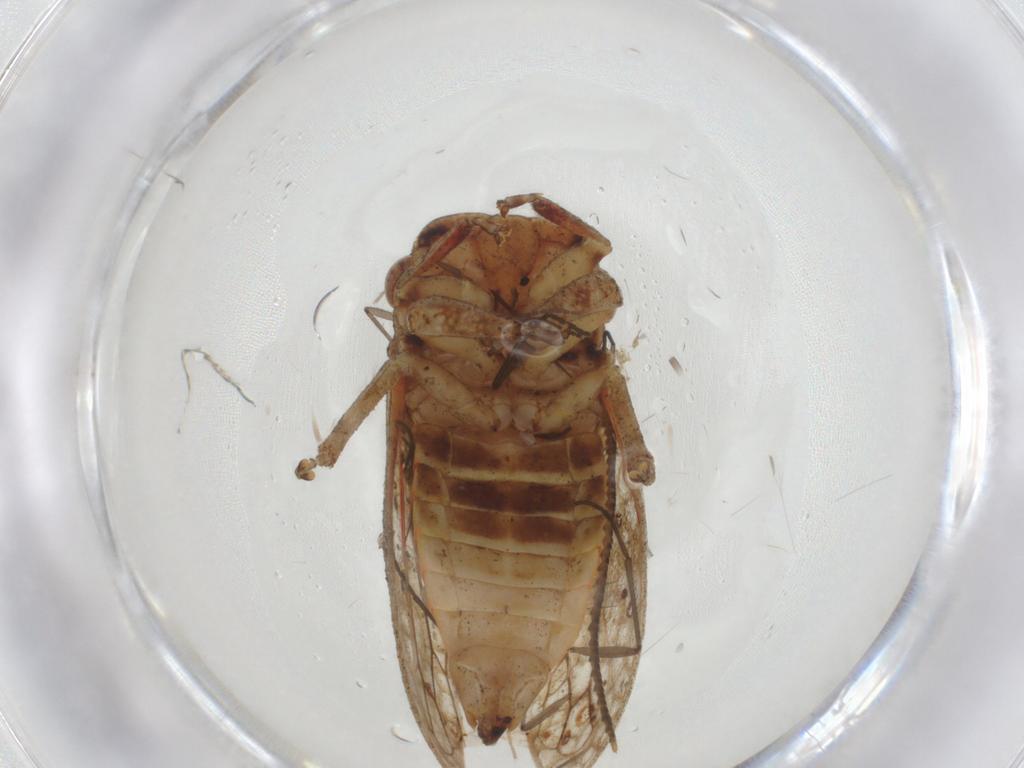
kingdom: Animalia
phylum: Arthropoda
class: Insecta
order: Hemiptera
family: Cicadellidae
